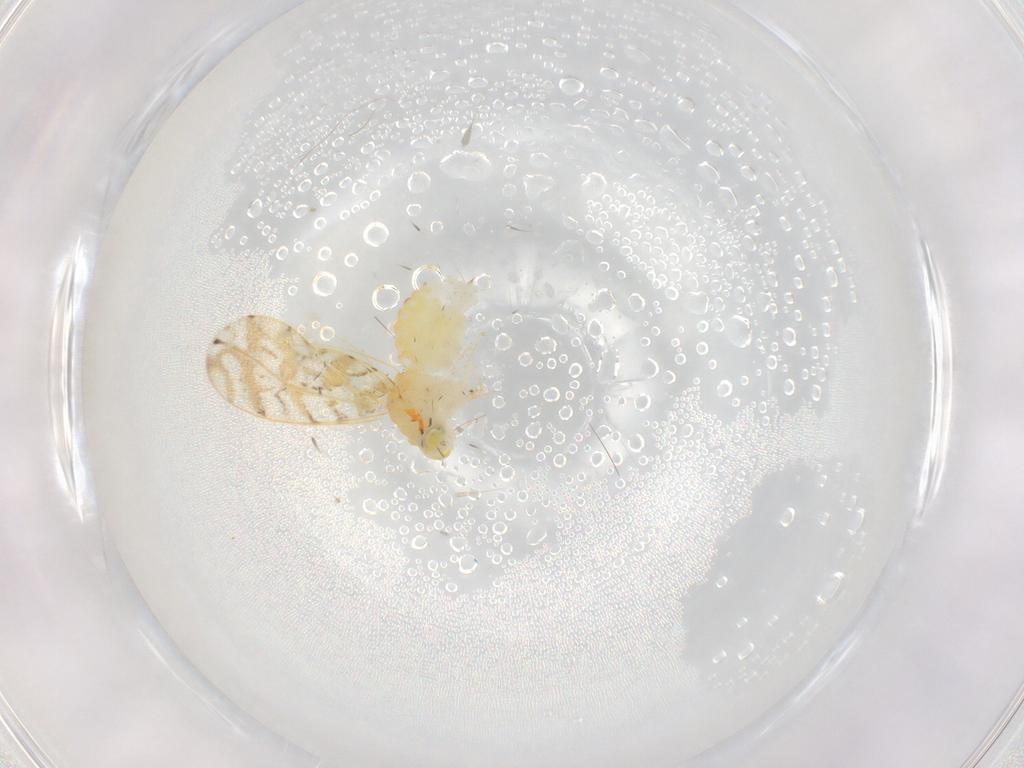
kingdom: Animalia
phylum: Arthropoda
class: Insecta
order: Hemiptera
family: Aleyrodidae
